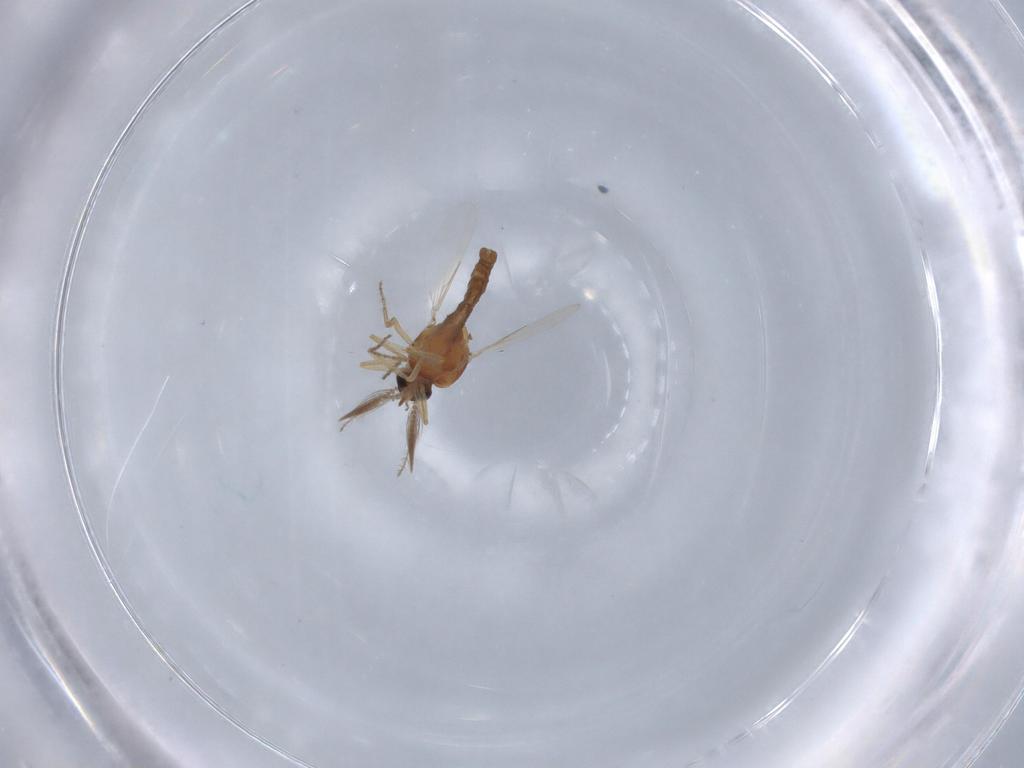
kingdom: Animalia
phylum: Arthropoda
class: Insecta
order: Diptera
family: Ceratopogonidae
